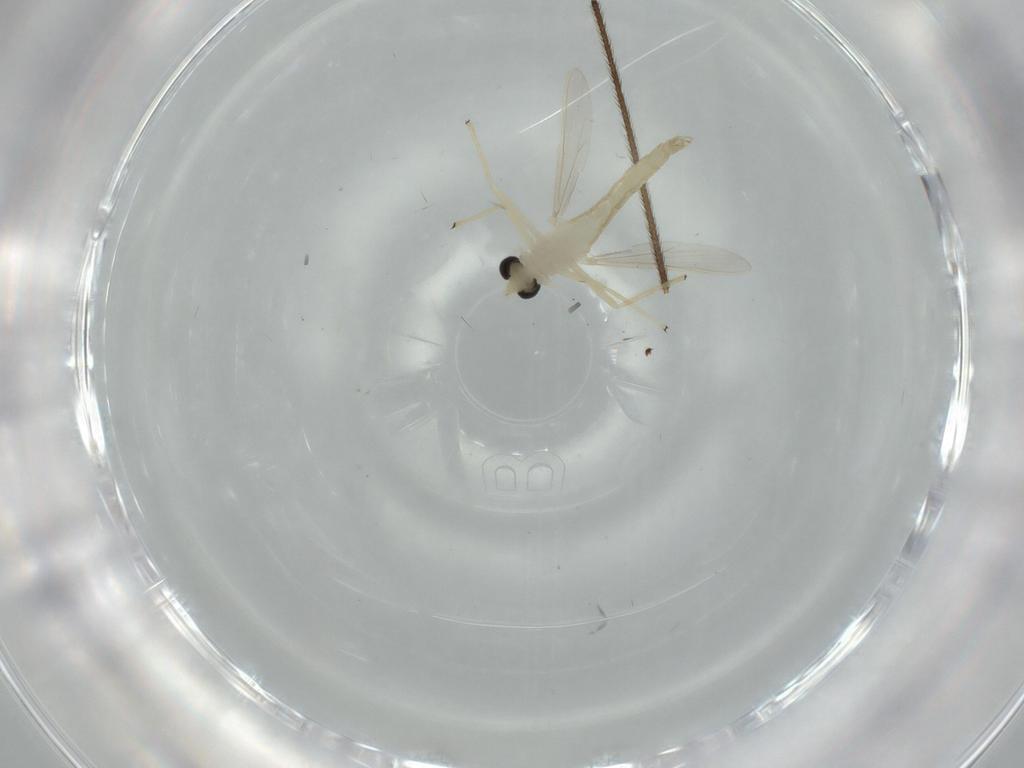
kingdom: Animalia
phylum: Arthropoda
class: Insecta
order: Diptera
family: Chironomidae
